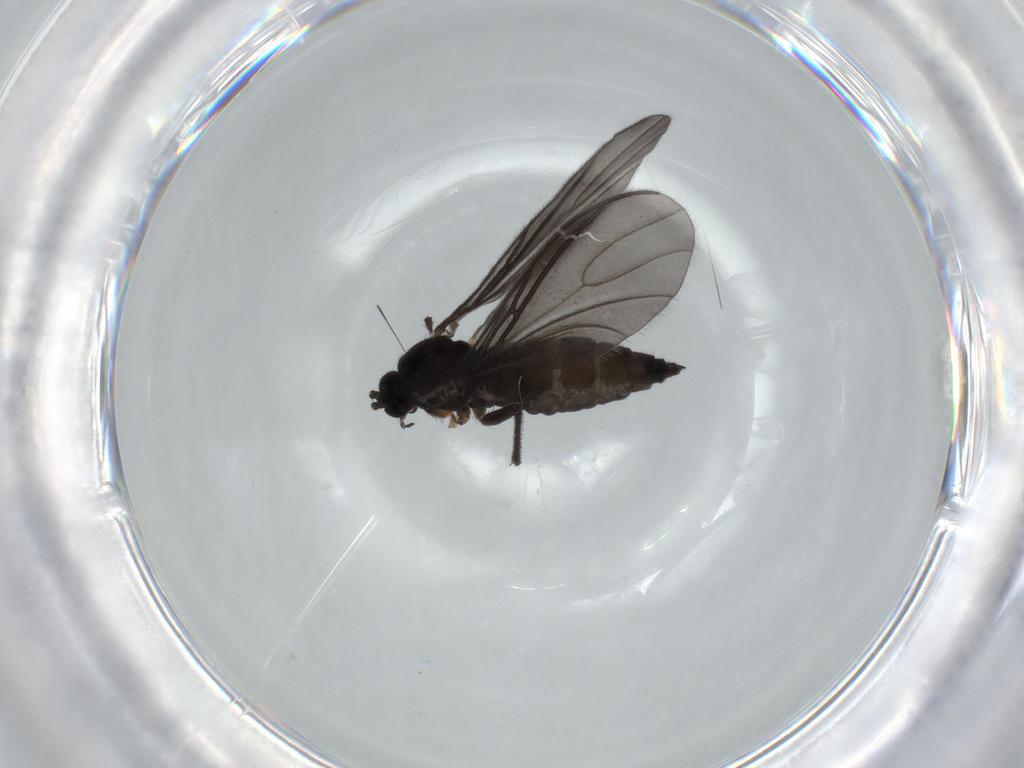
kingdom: Animalia
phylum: Arthropoda
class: Insecta
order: Diptera
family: Sciaridae
